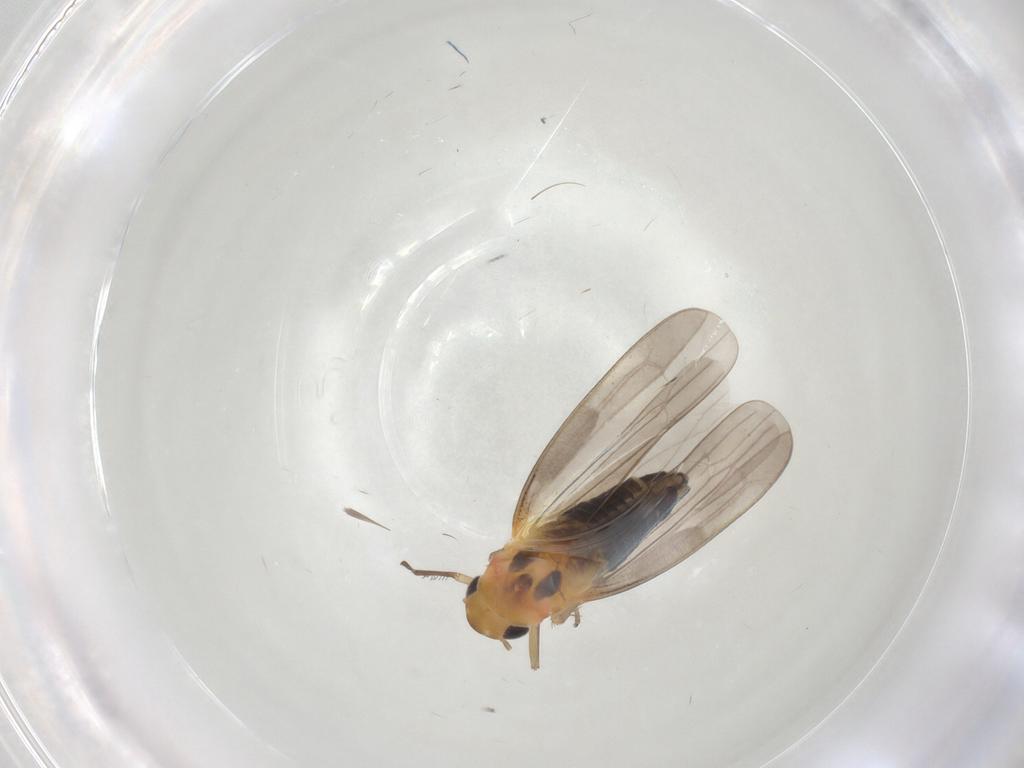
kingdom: Animalia
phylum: Arthropoda
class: Insecta
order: Hemiptera
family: Cicadellidae
